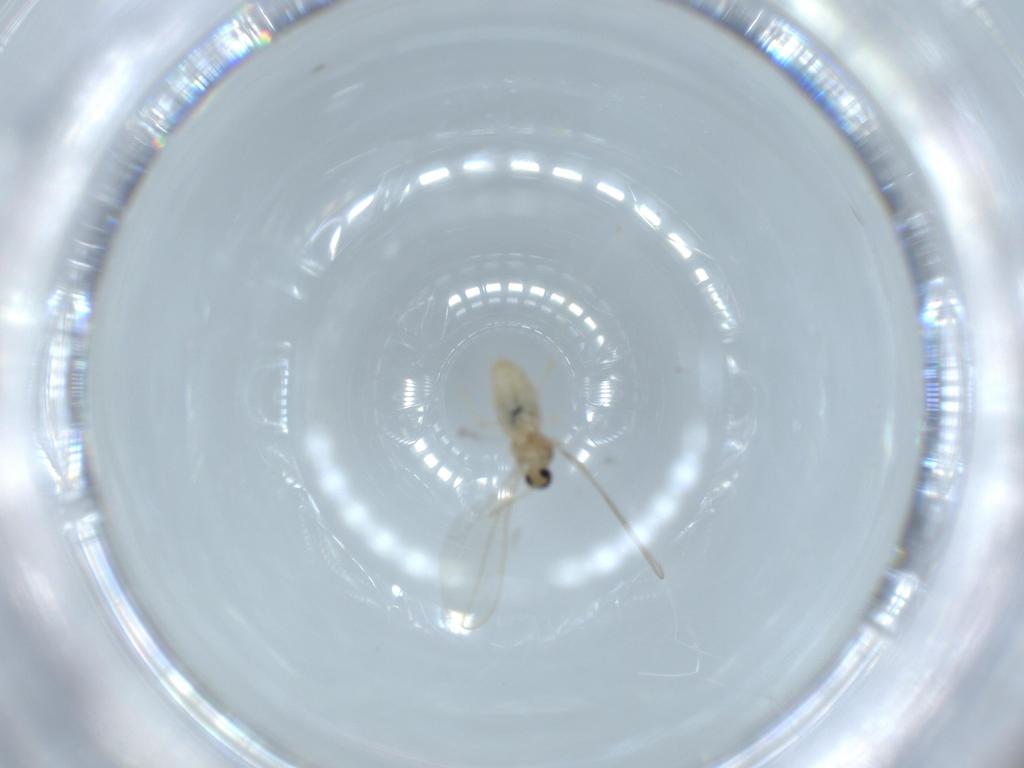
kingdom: Animalia
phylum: Arthropoda
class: Insecta
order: Diptera
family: Cecidomyiidae
